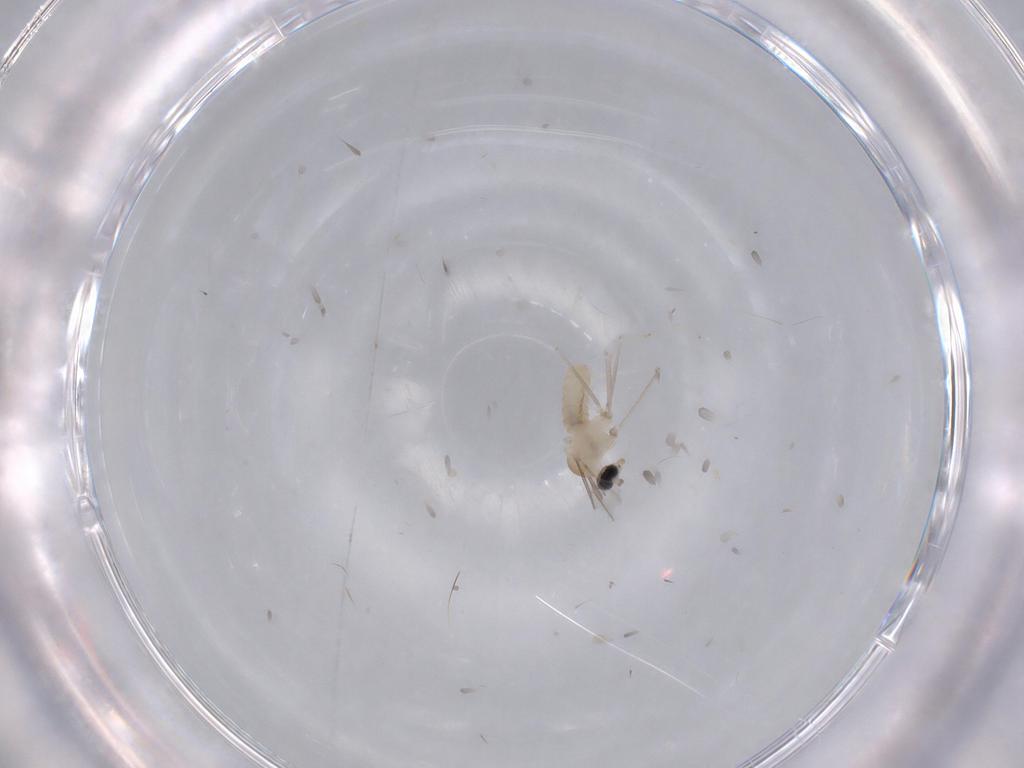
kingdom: Animalia
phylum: Arthropoda
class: Insecta
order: Diptera
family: Cecidomyiidae
